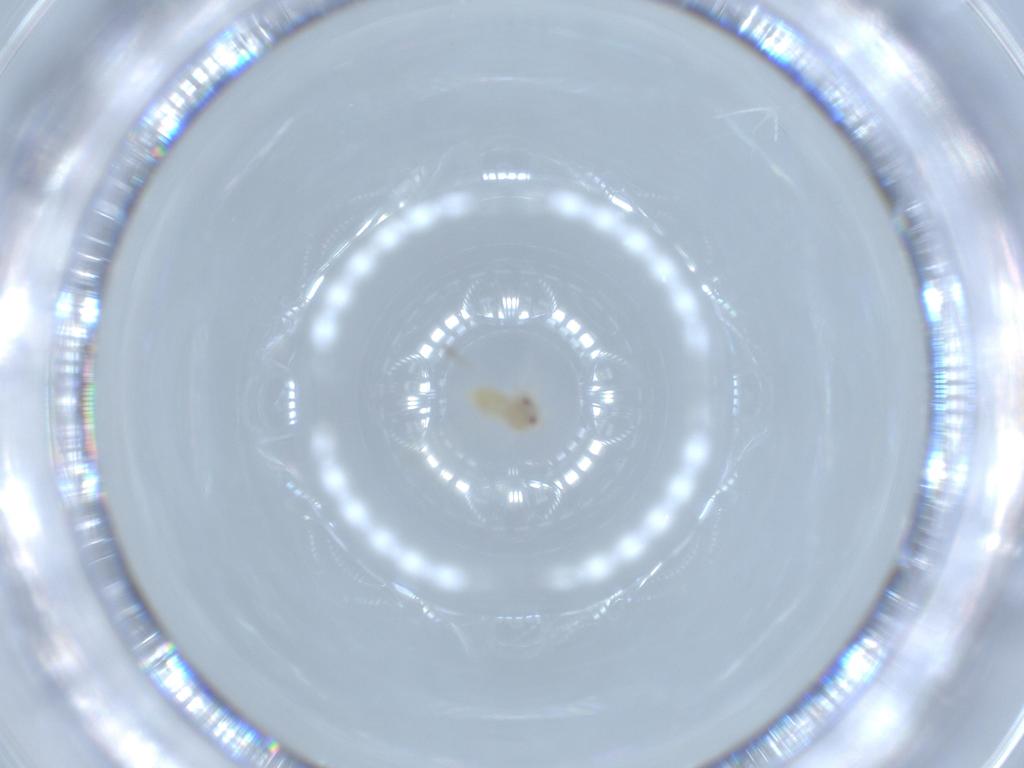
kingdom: Animalia
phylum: Arthropoda
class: Insecta
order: Hemiptera
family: Aleyrodidae
